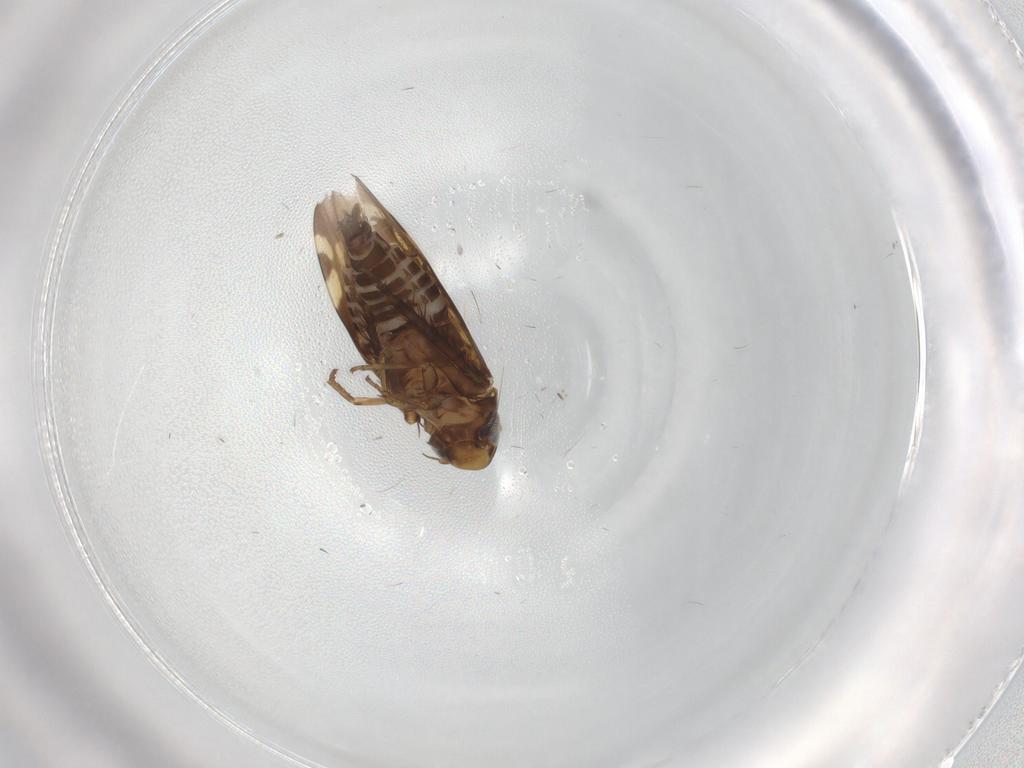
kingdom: Animalia
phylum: Arthropoda
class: Insecta
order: Hemiptera
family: Cicadellidae
